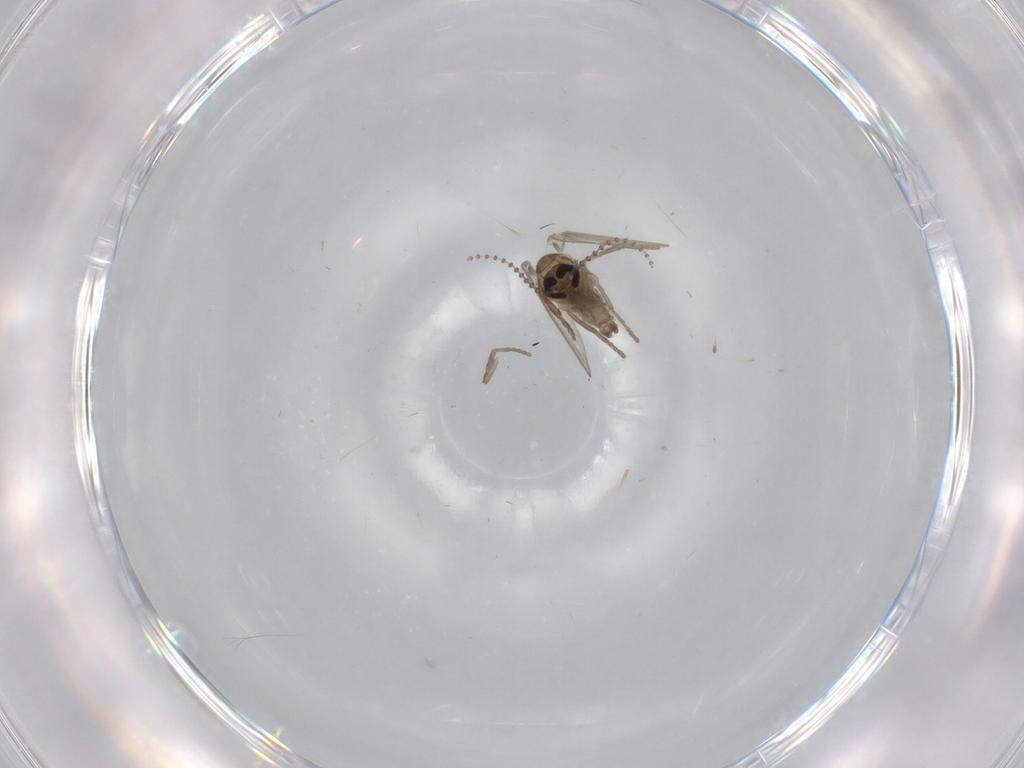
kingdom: Animalia
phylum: Arthropoda
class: Insecta
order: Diptera
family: Psychodidae
